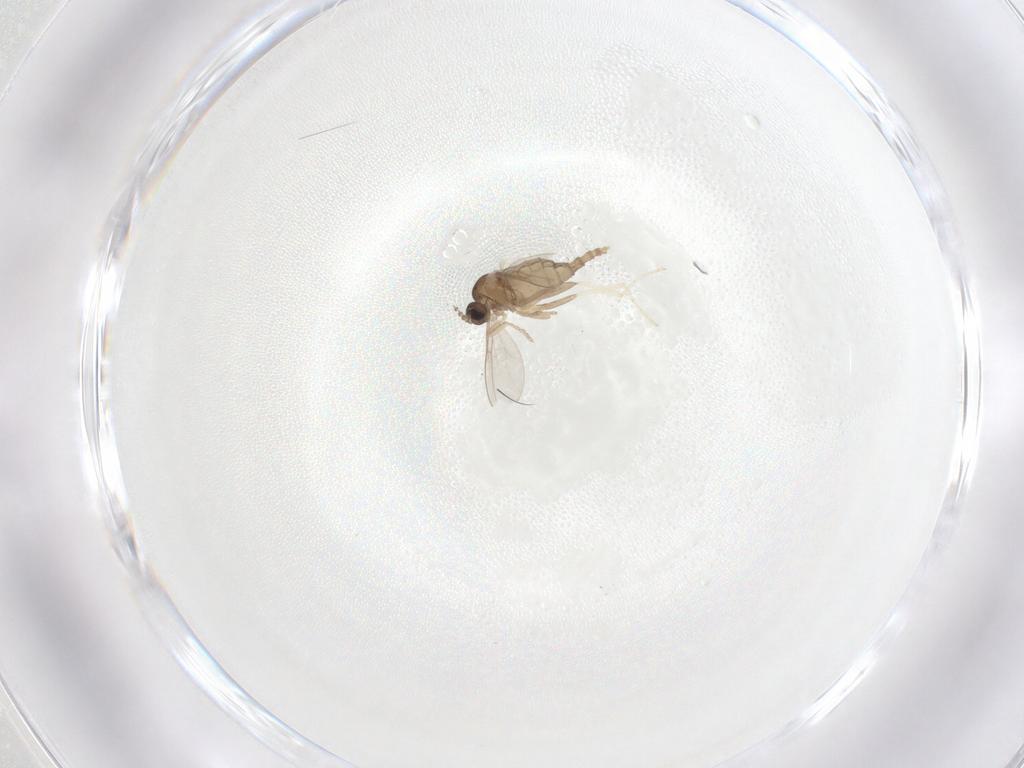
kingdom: Animalia
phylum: Arthropoda
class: Insecta
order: Diptera
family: Cecidomyiidae
